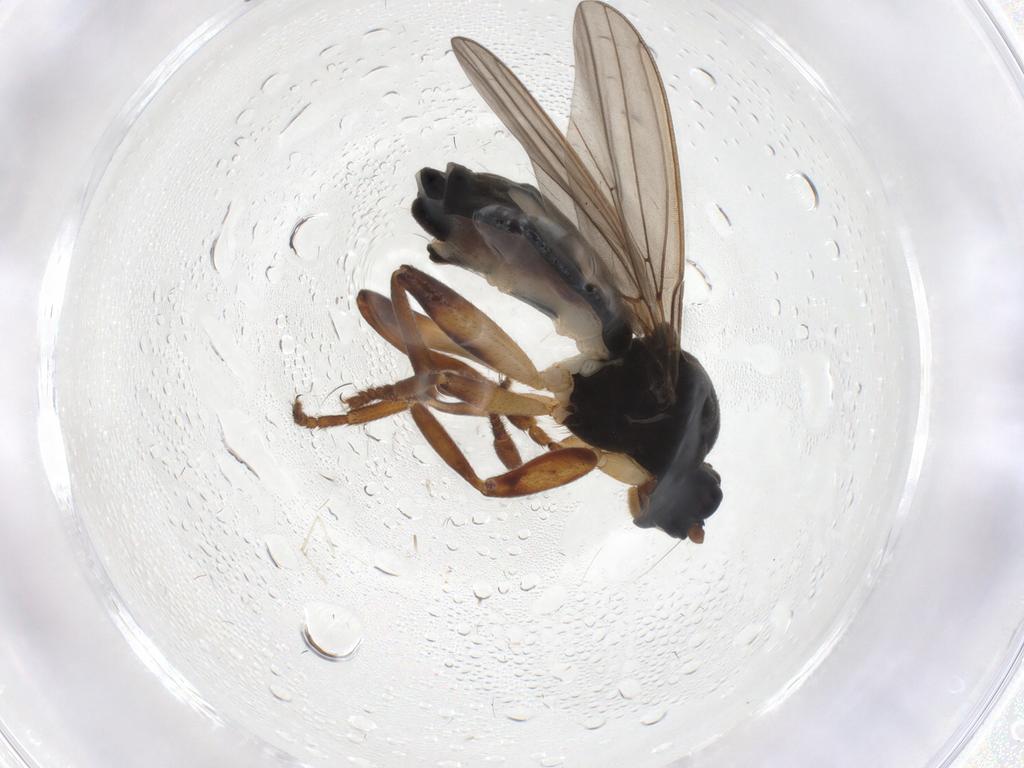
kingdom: Animalia
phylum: Arthropoda
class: Insecta
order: Diptera
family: Sphaeroceridae
